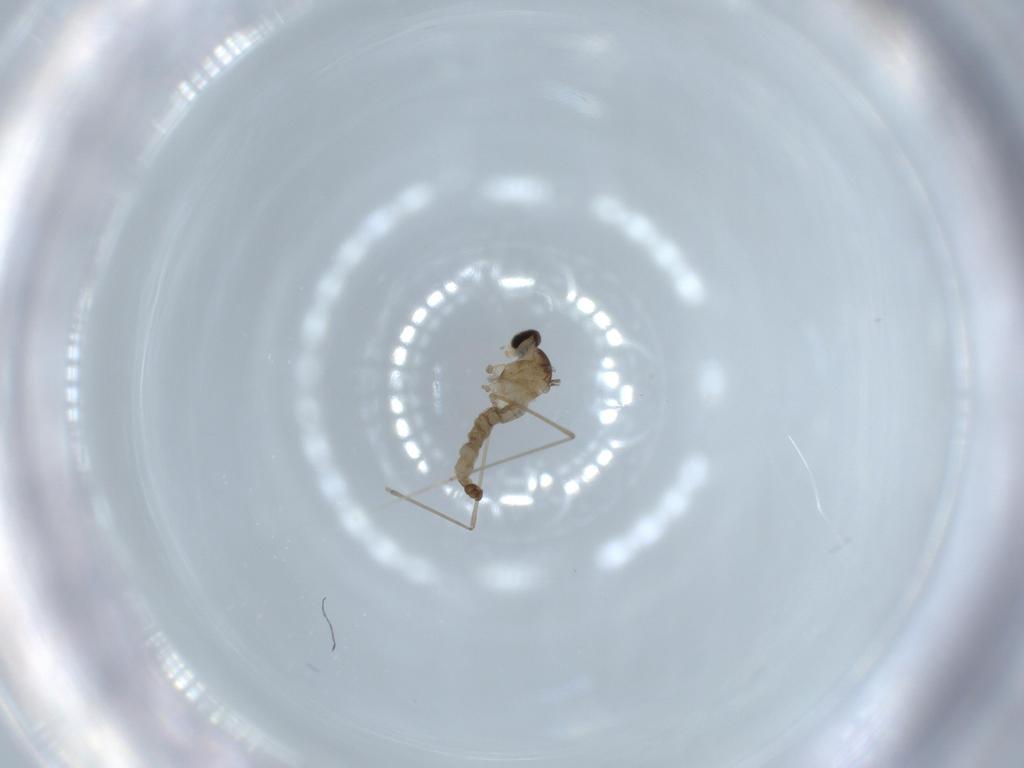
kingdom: Animalia
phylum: Arthropoda
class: Insecta
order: Diptera
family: Cecidomyiidae
